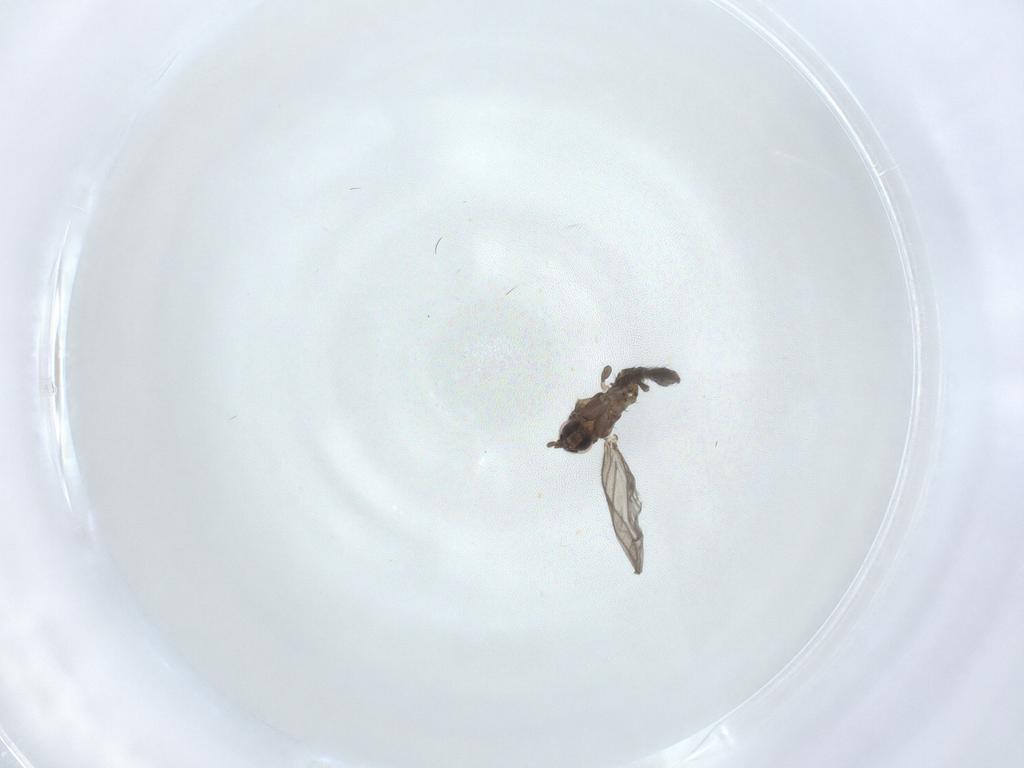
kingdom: Animalia
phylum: Arthropoda
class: Insecta
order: Diptera
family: Sciaridae
